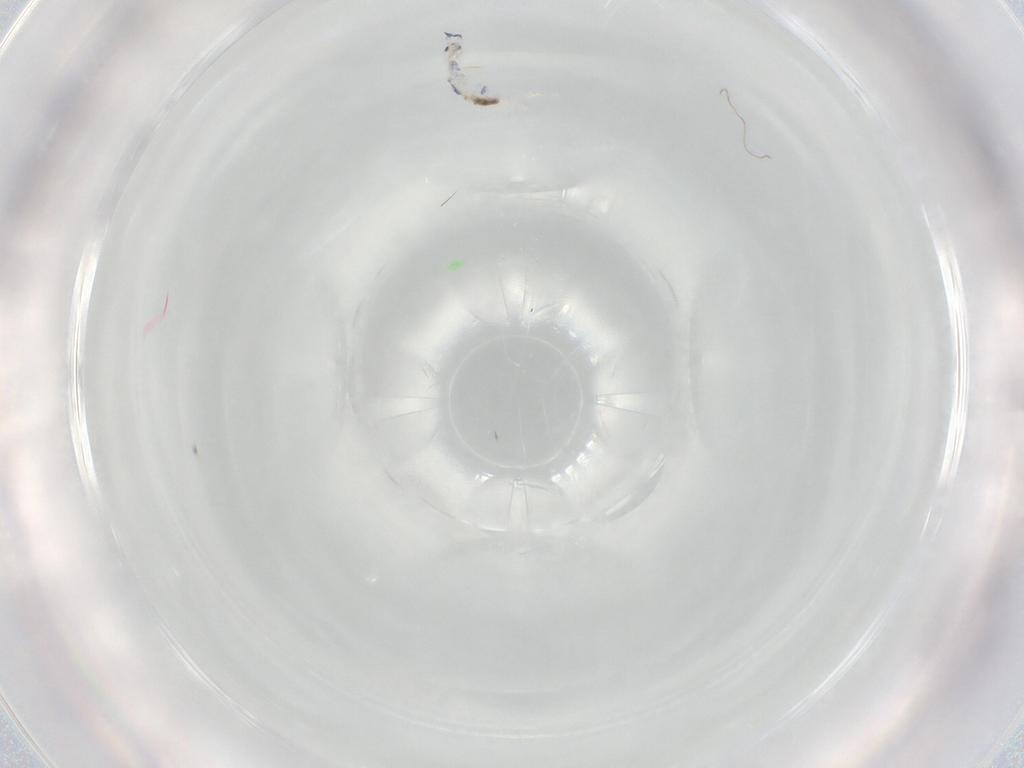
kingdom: Animalia
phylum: Arthropoda
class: Collembola
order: Entomobryomorpha
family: Entomobryidae
